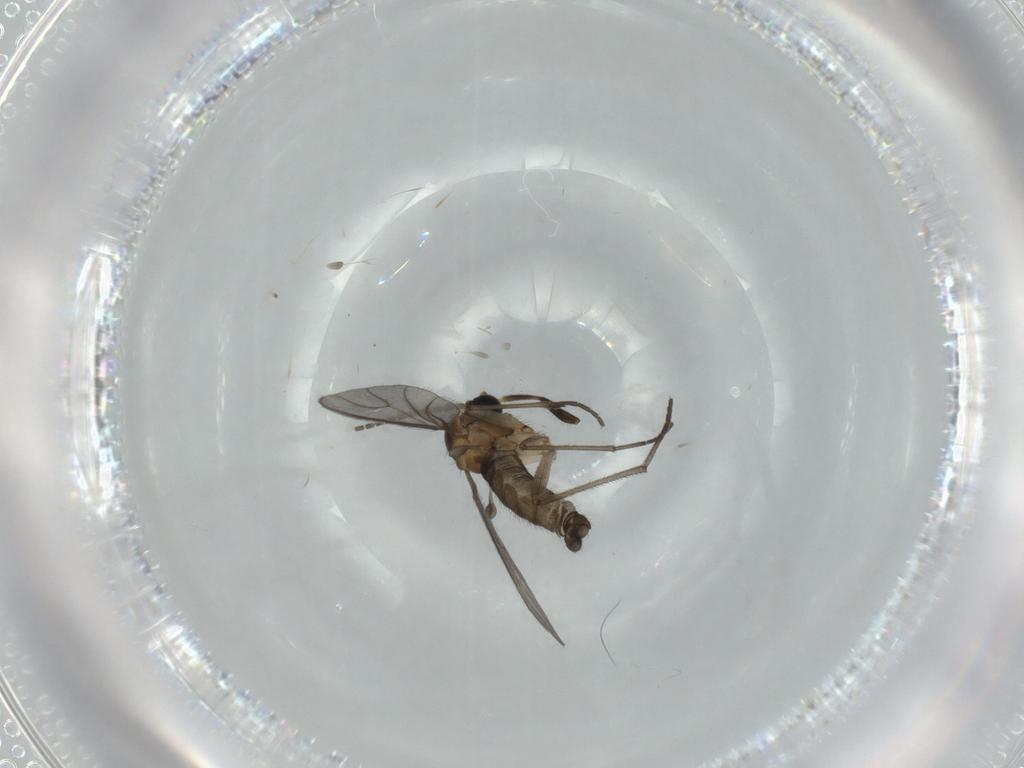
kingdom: Animalia
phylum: Arthropoda
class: Insecta
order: Diptera
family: Sciaridae
